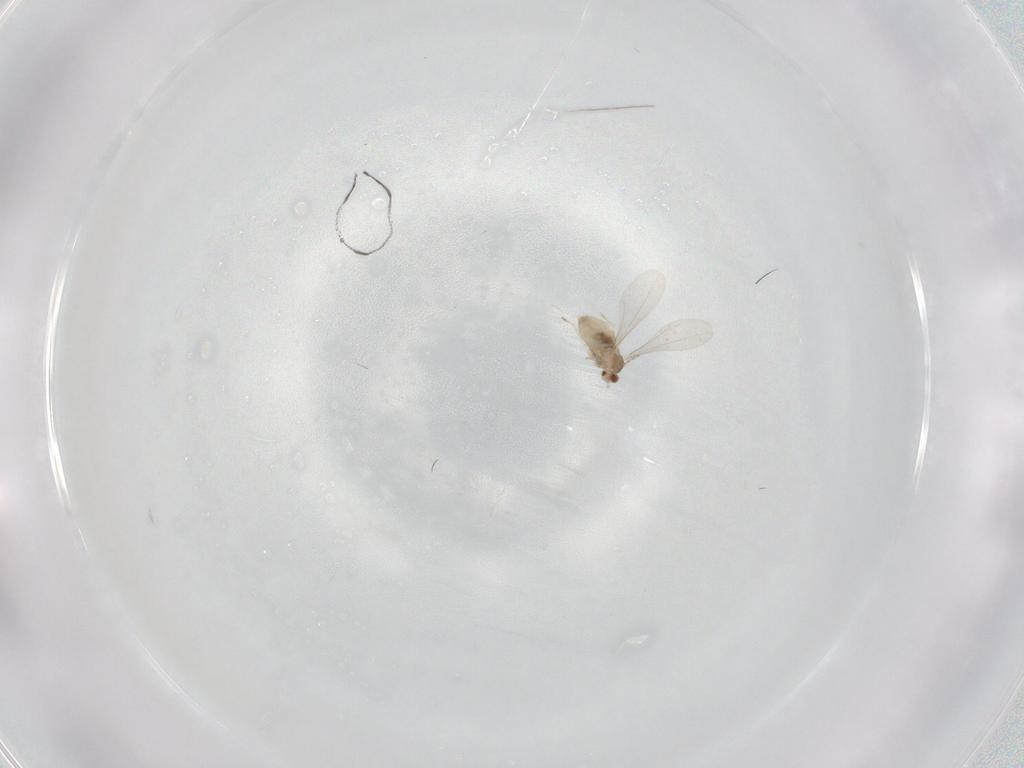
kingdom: Animalia
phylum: Arthropoda
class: Insecta
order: Diptera
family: Cecidomyiidae
